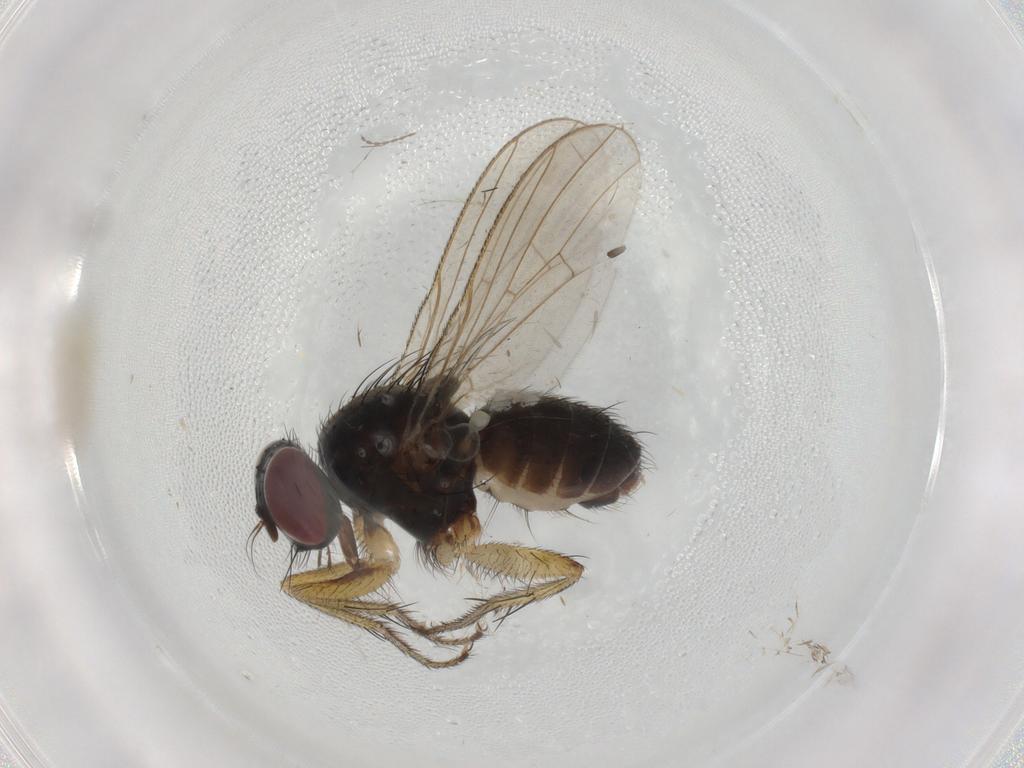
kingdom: Animalia
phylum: Arthropoda
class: Insecta
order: Diptera
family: Muscidae
